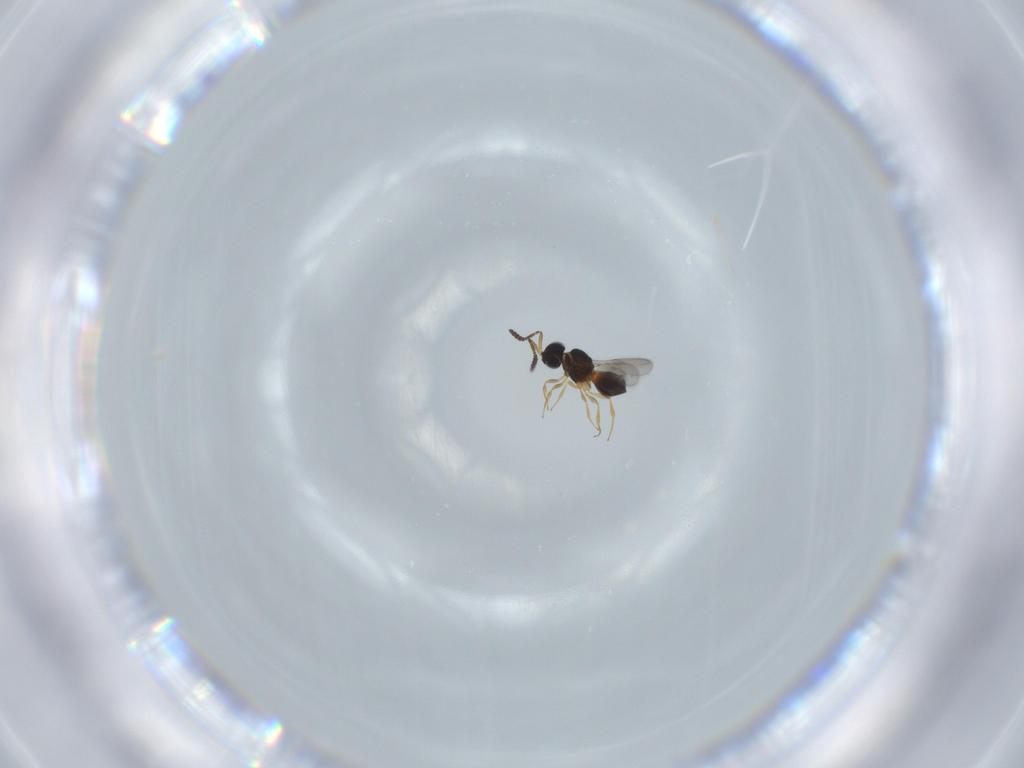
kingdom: Animalia
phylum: Arthropoda
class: Insecta
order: Hymenoptera
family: Scelionidae
